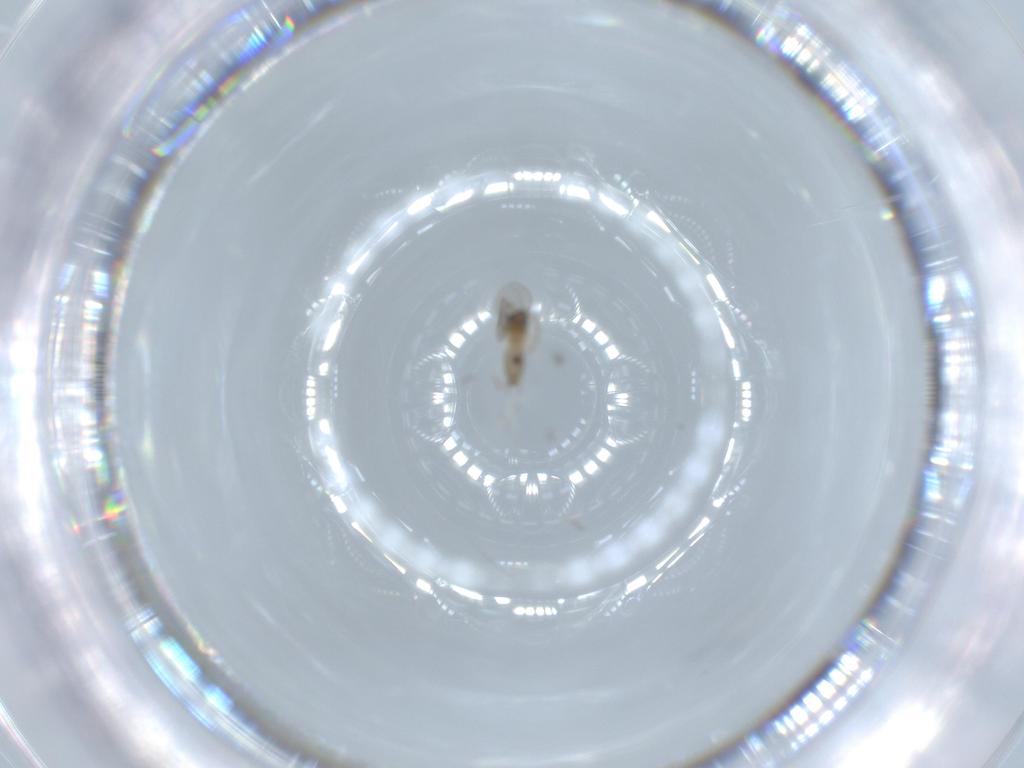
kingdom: Animalia
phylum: Arthropoda
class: Insecta
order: Diptera
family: Cecidomyiidae
